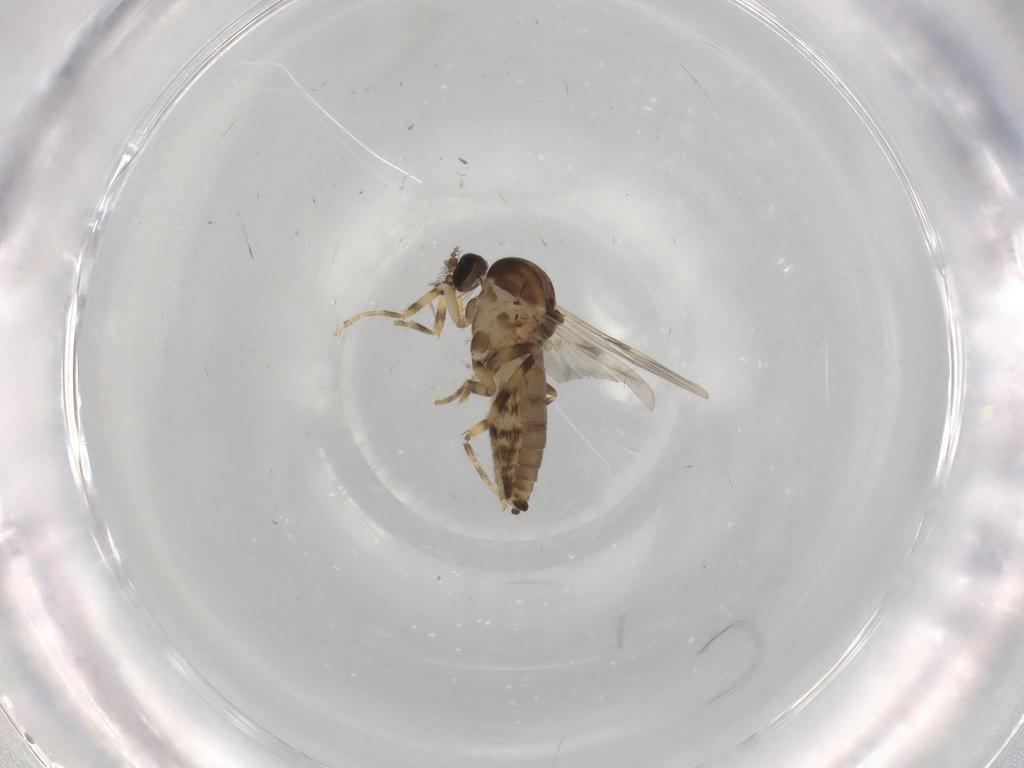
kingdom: Animalia
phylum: Arthropoda
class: Insecta
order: Diptera
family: Ceratopogonidae
